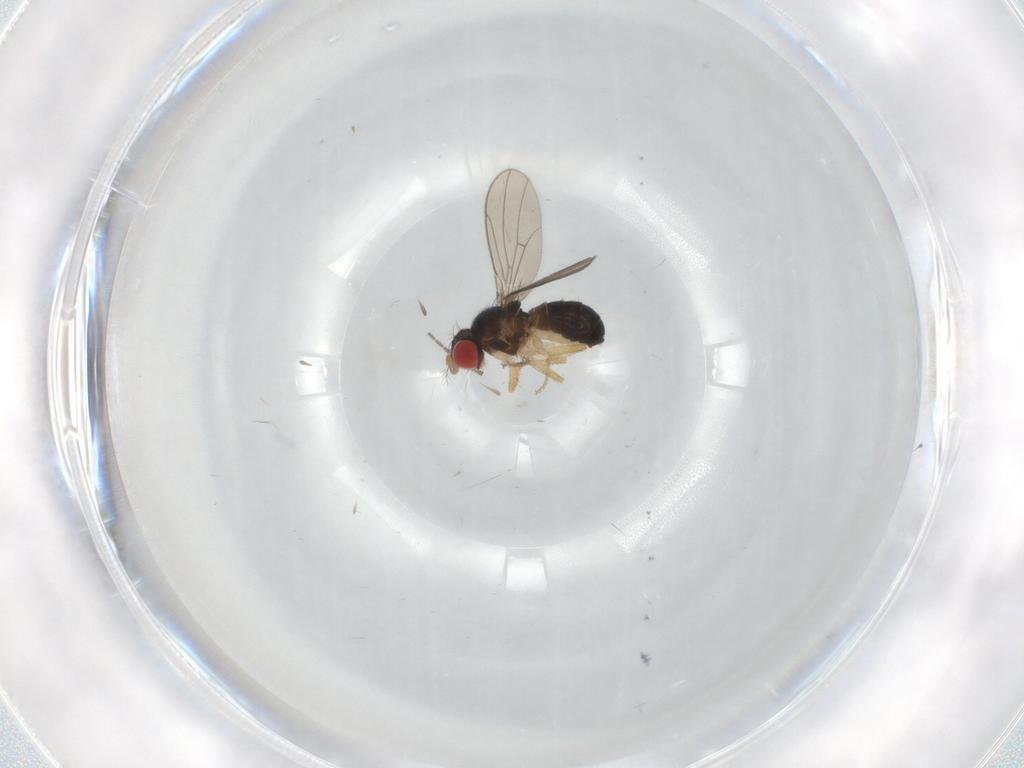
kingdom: Animalia
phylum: Arthropoda
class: Insecta
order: Diptera
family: Drosophilidae
